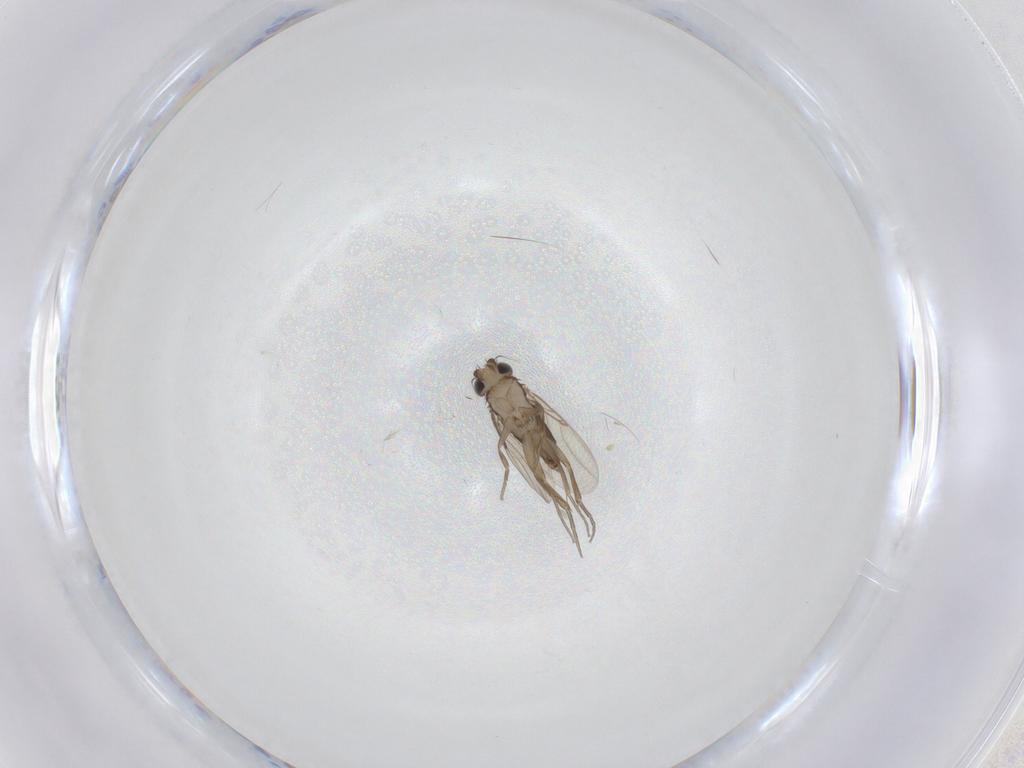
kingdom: Animalia
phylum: Arthropoda
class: Insecta
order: Diptera
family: Phoridae
